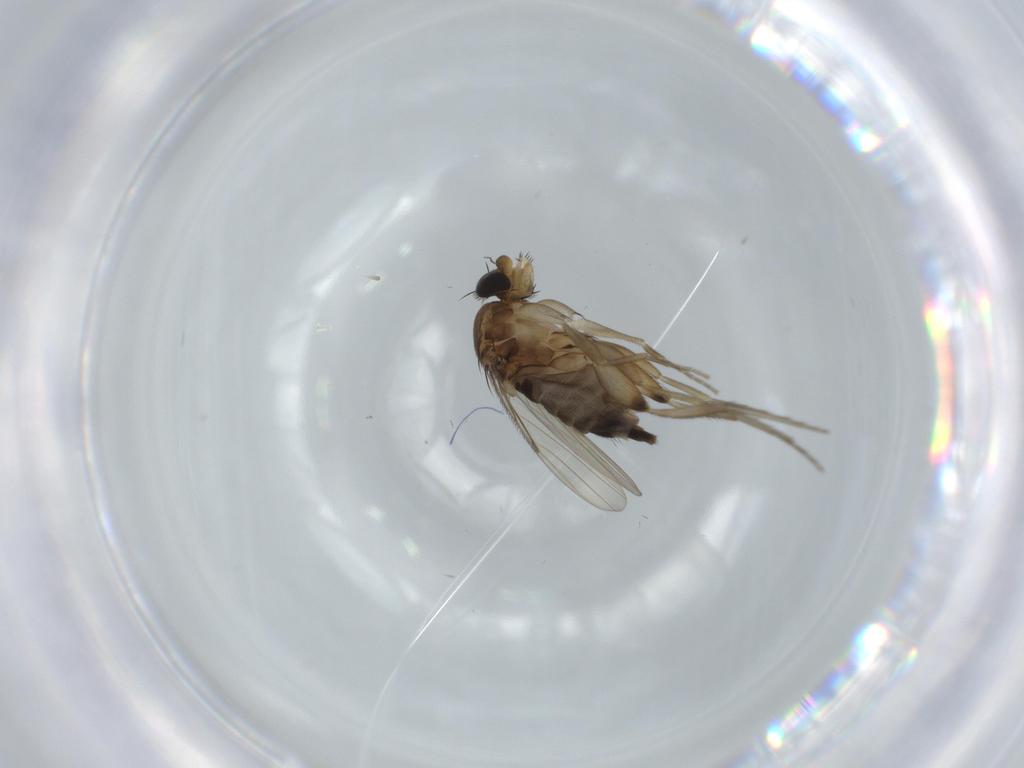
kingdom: Animalia
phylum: Arthropoda
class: Insecta
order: Diptera
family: Phoridae
